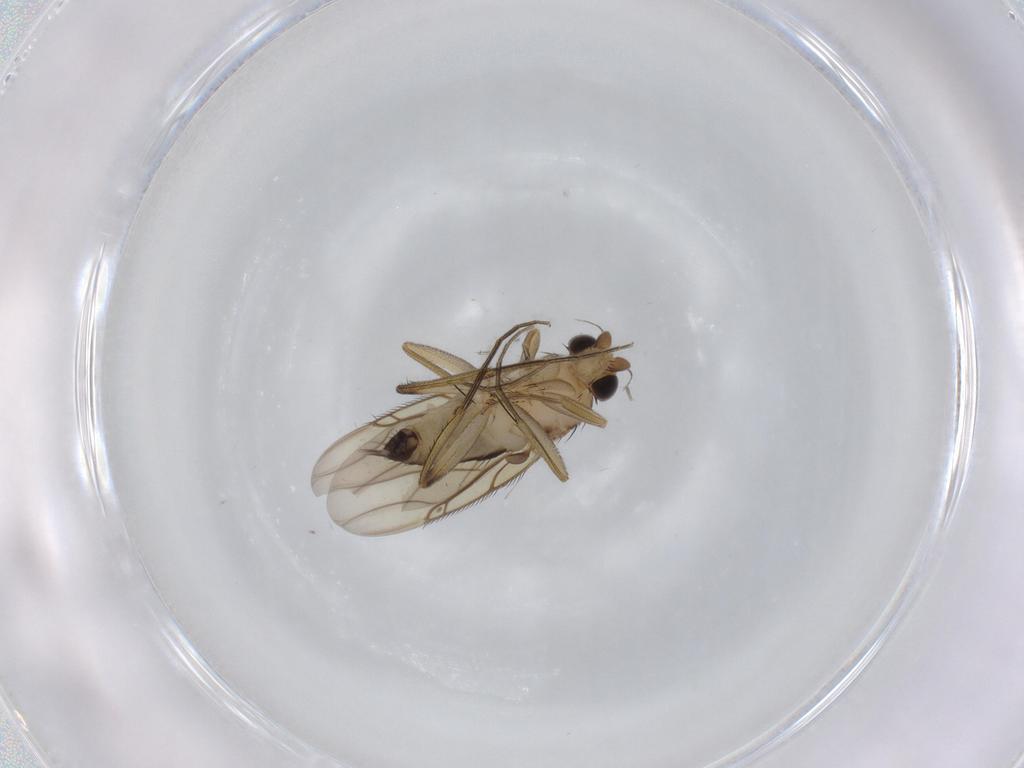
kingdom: Animalia
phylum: Arthropoda
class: Insecta
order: Diptera
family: Phoridae
